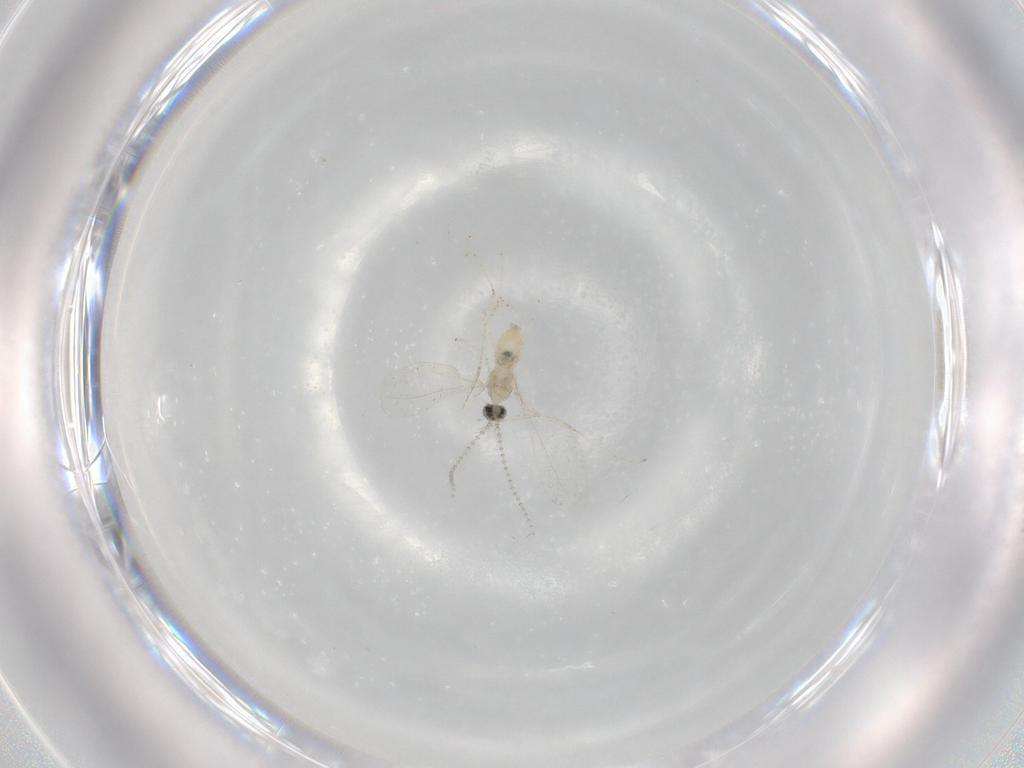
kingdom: Animalia
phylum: Arthropoda
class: Insecta
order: Diptera
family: Cecidomyiidae
